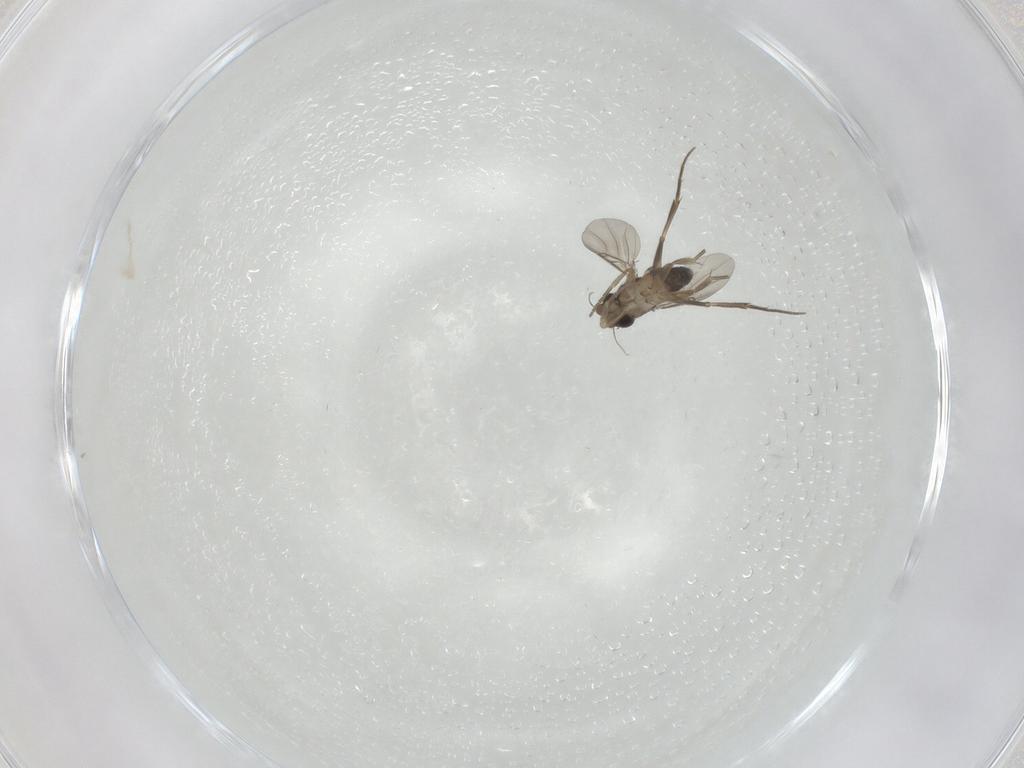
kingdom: Animalia
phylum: Arthropoda
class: Insecta
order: Diptera
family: Phoridae
